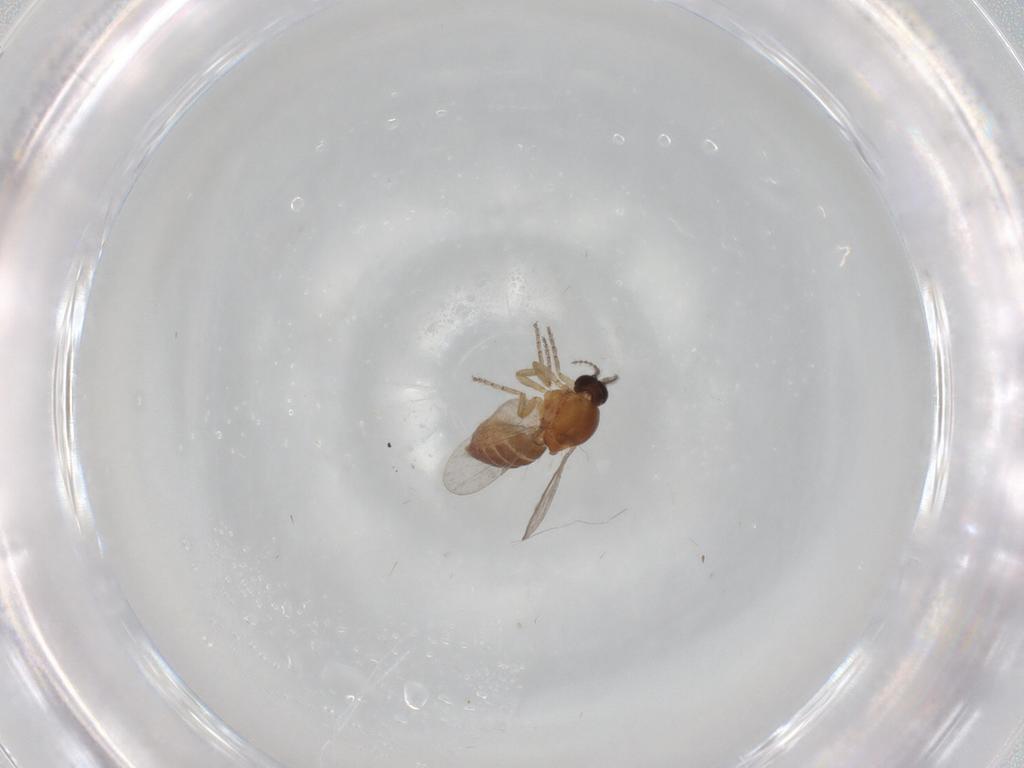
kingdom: Animalia
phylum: Arthropoda
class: Insecta
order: Diptera
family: Ceratopogonidae
